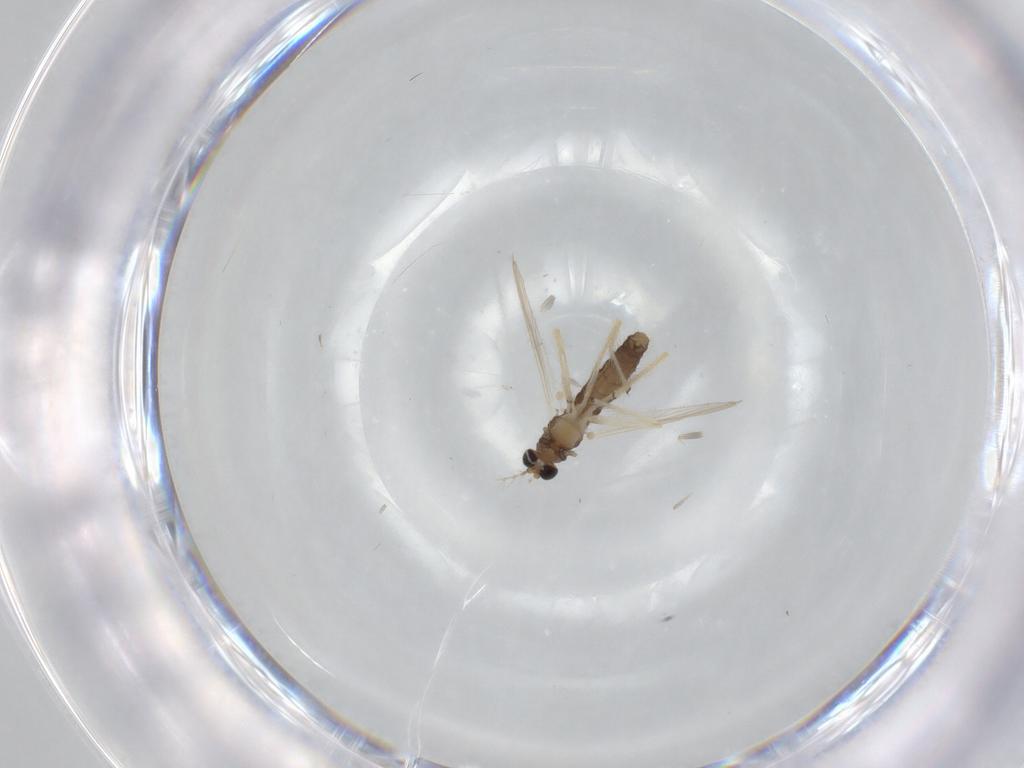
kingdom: Animalia
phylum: Arthropoda
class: Insecta
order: Diptera
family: Chironomidae
